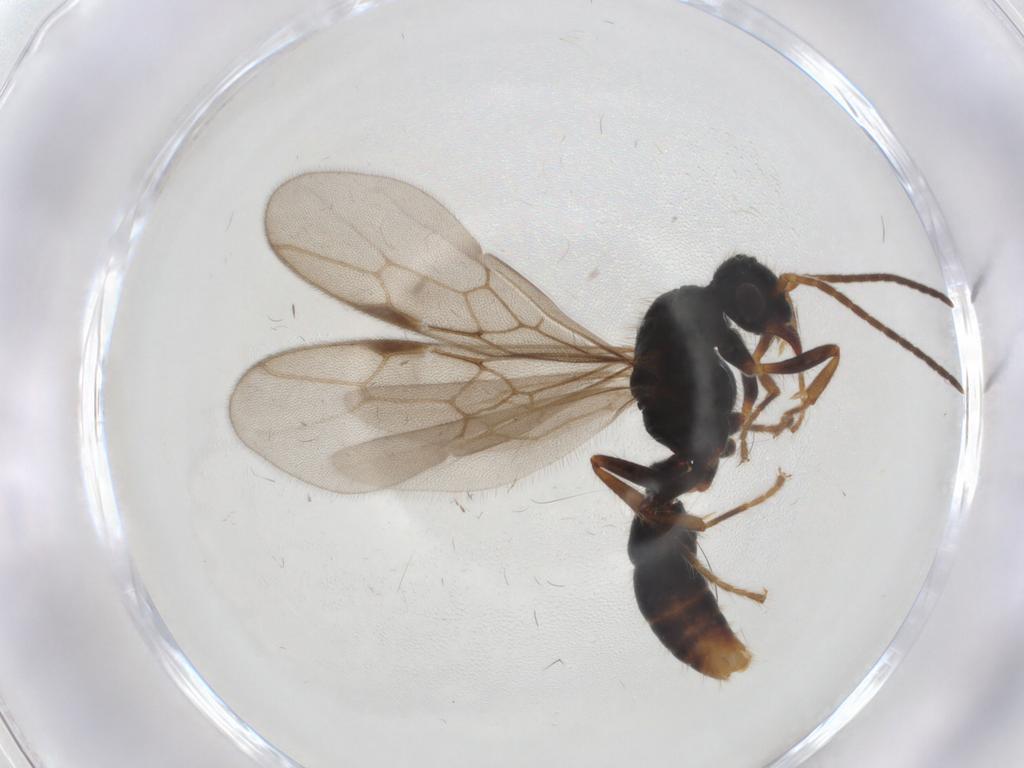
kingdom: Animalia
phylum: Arthropoda
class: Insecta
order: Hymenoptera
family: Formicidae
